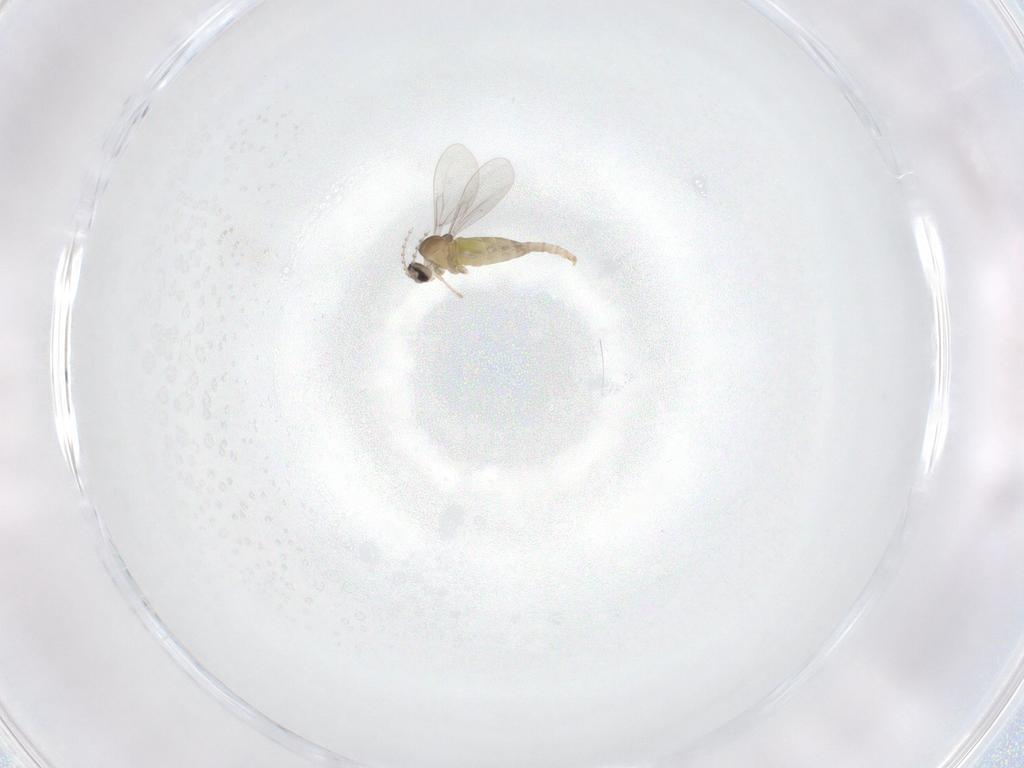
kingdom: Animalia
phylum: Arthropoda
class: Insecta
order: Diptera
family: Cecidomyiidae
